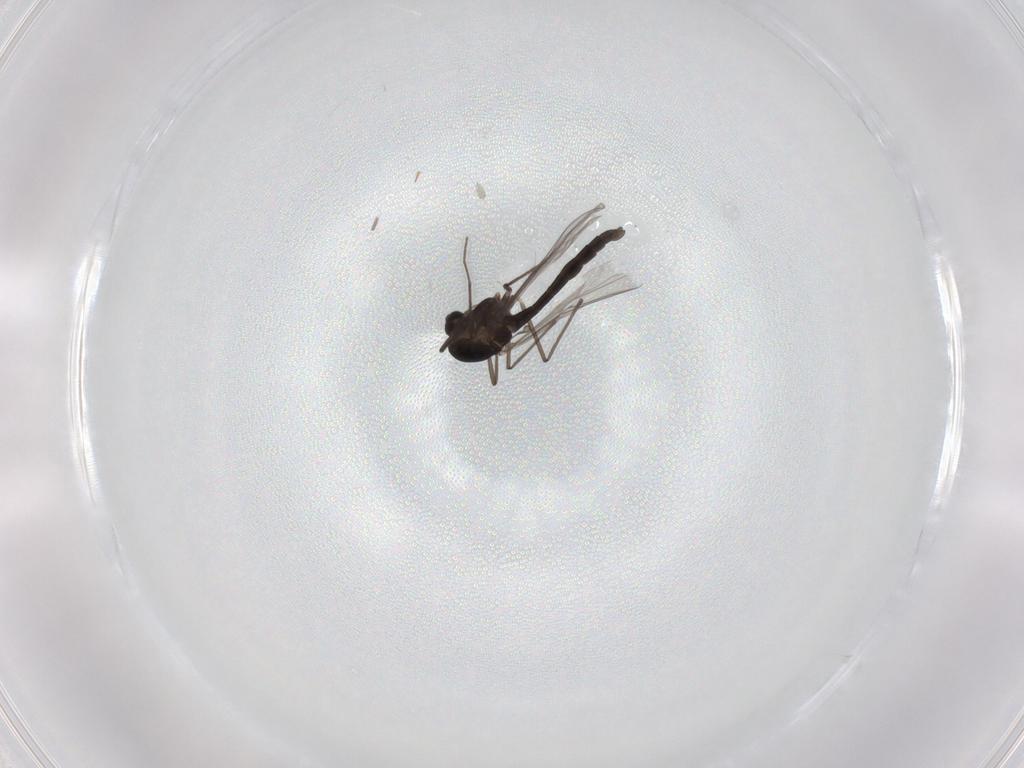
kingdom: Animalia
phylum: Arthropoda
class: Insecta
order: Diptera
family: Chironomidae
